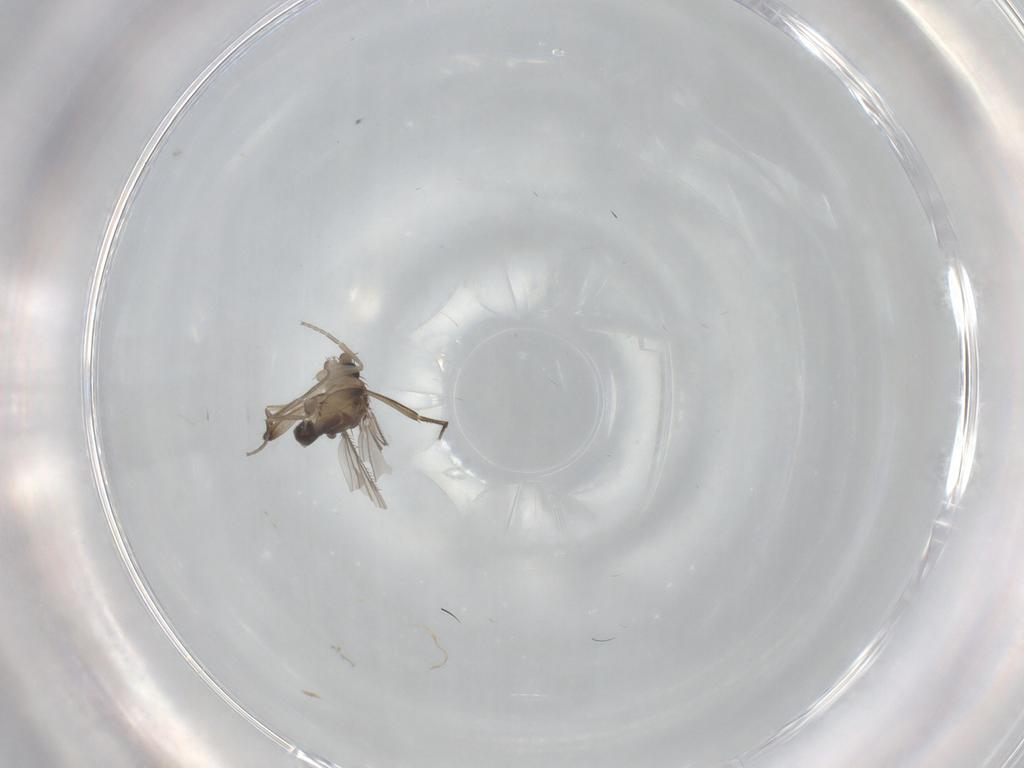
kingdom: Animalia
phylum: Arthropoda
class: Insecta
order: Diptera
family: Phoridae
